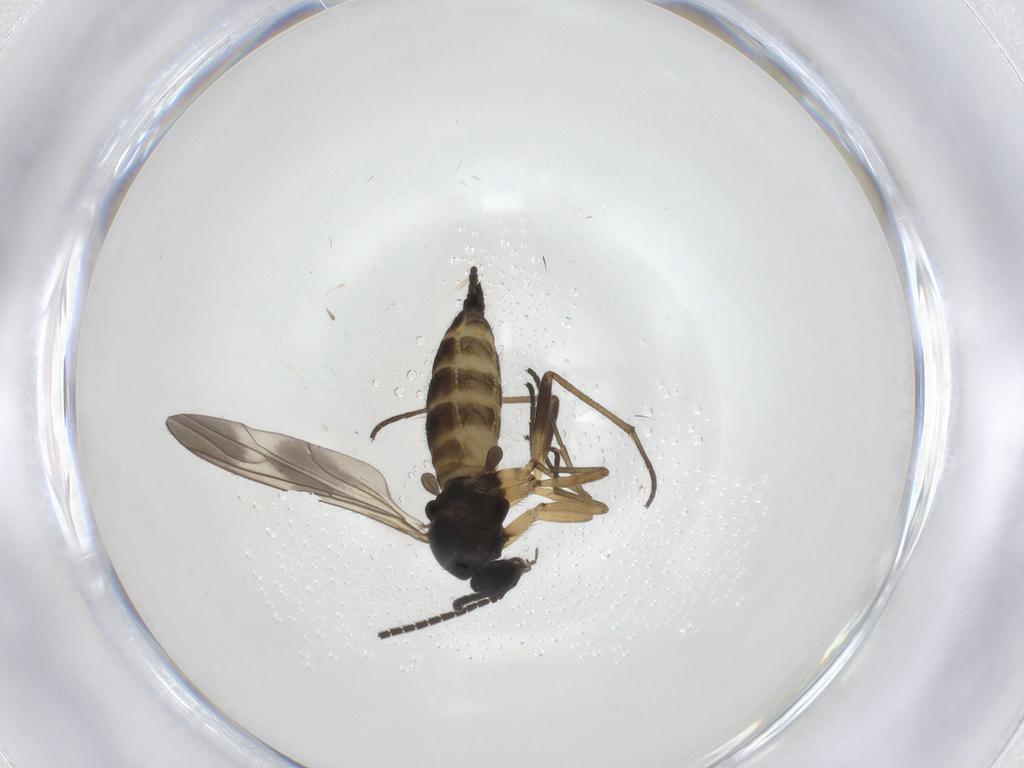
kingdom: Animalia
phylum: Arthropoda
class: Insecta
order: Diptera
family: Sciaridae
